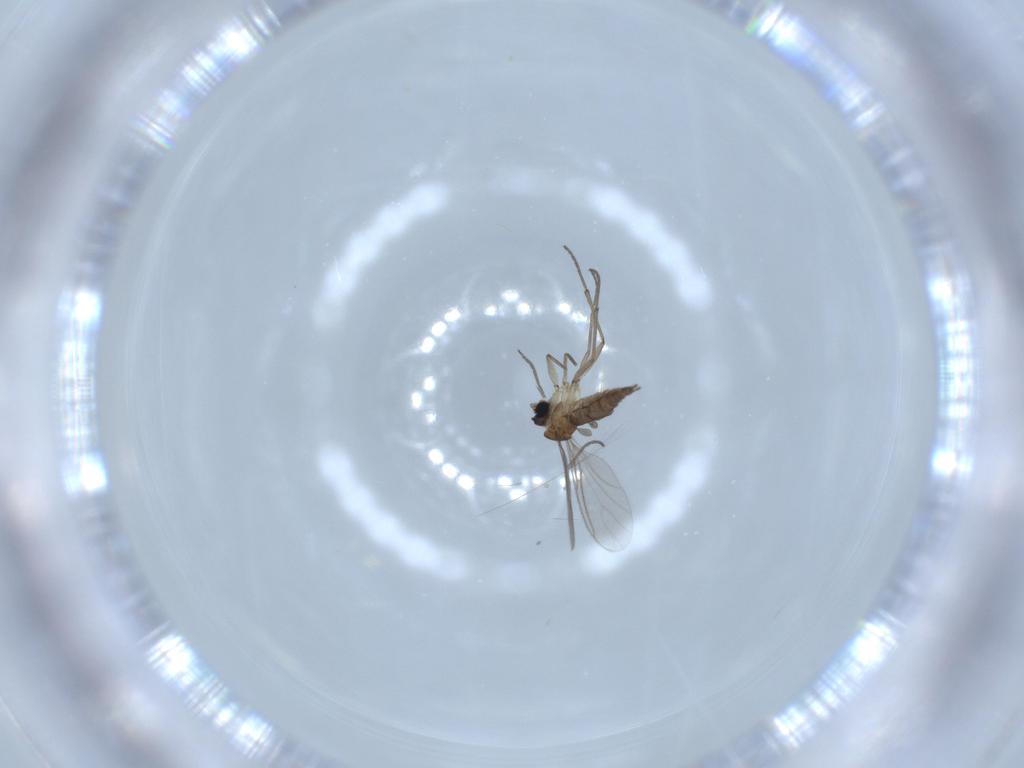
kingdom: Animalia
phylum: Arthropoda
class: Insecta
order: Diptera
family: Sciaridae
